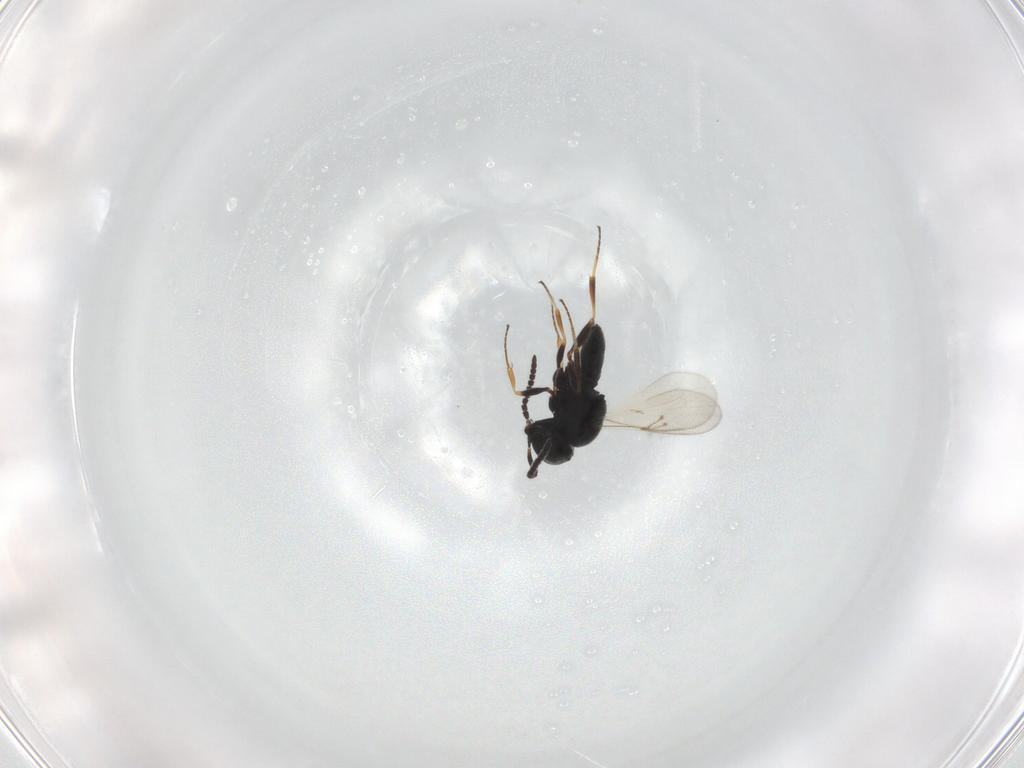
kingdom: Animalia
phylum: Arthropoda
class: Insecta
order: Hymenoptera
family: Scelionidae
